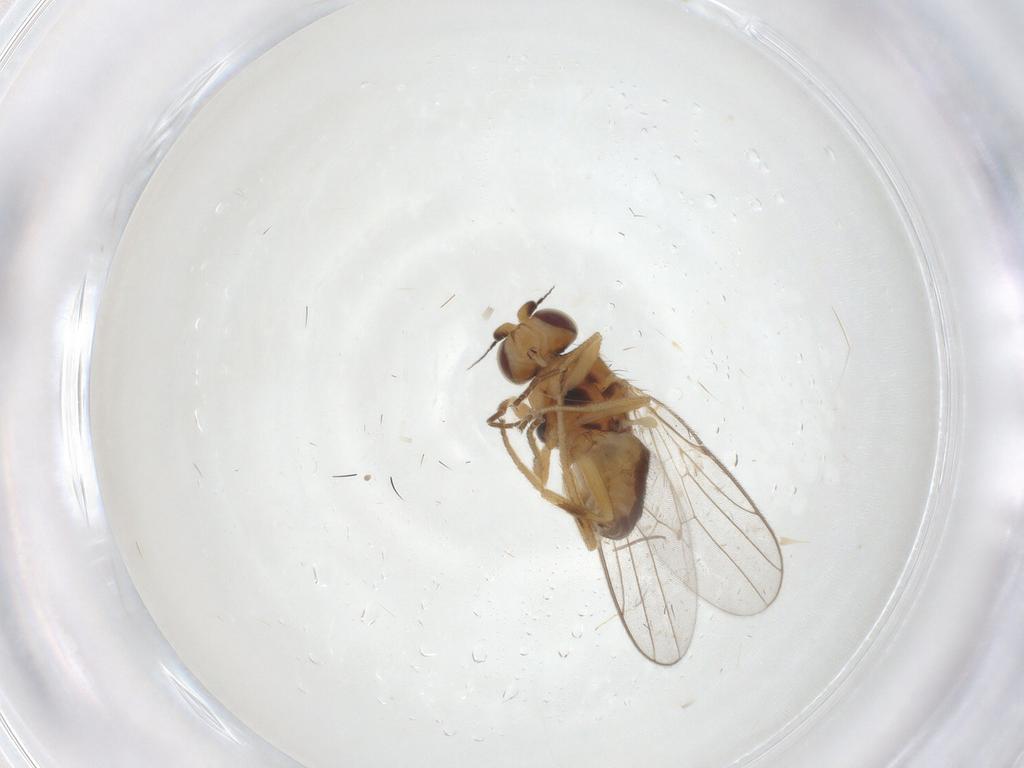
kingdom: Animalia
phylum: Arthropoda
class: Insecta
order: Diptera
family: Chloropidae
